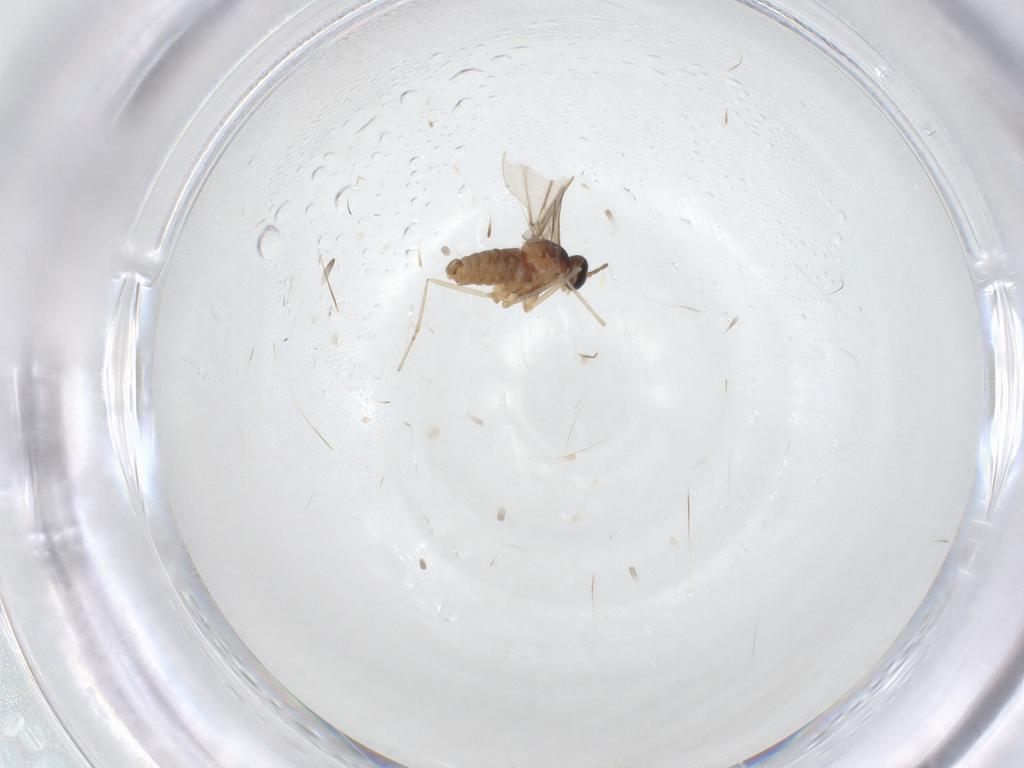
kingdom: Animalia
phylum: Arthropoda
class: Insecta
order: Diptera
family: Cecidomyiidae
